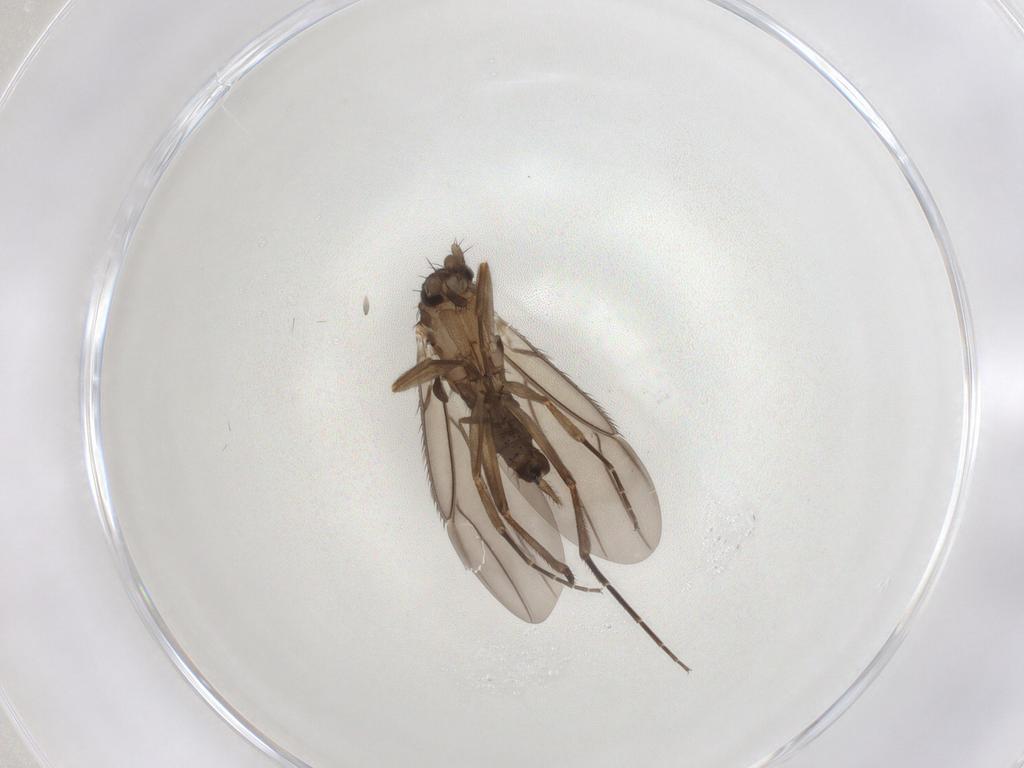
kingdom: Animalia
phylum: Arthropoda
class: Insecta
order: Diptera
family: Phoridae
